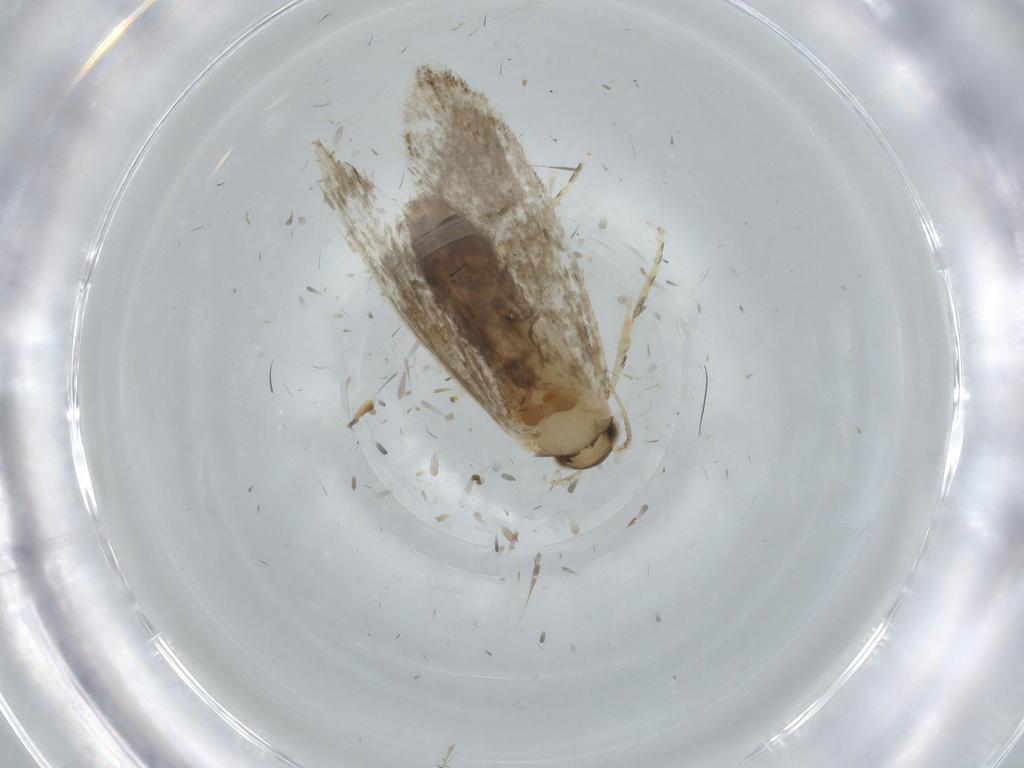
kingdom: Animalia
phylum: Arthropoda
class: Insecta
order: Lepidoptera
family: Tineidae
